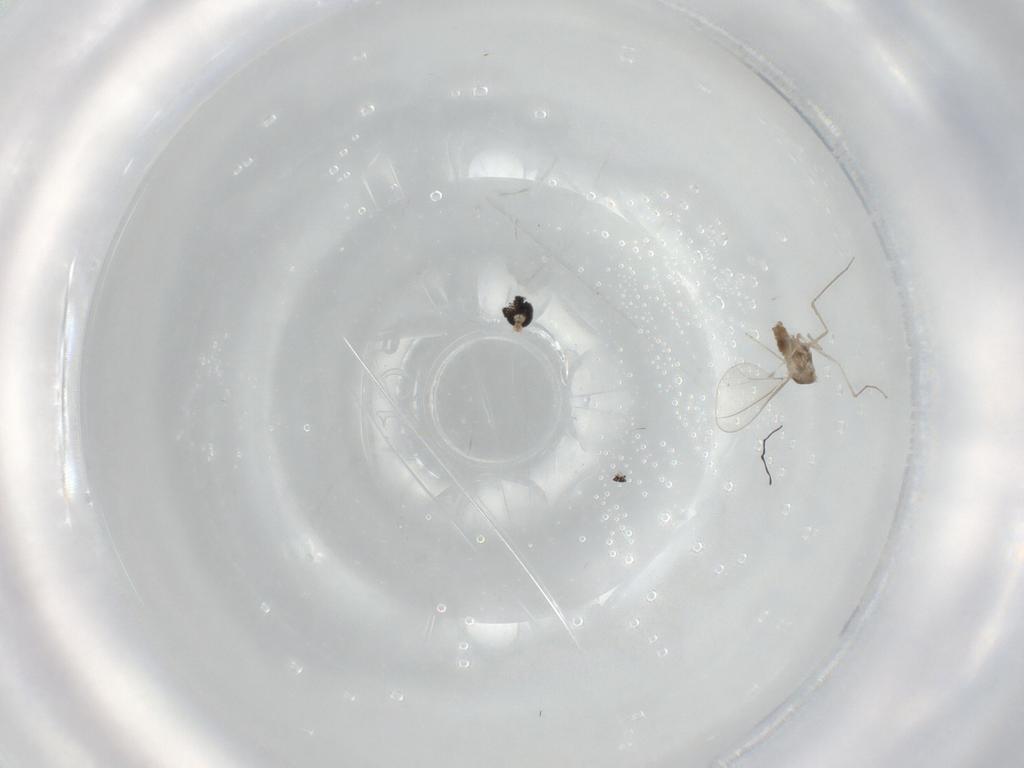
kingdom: Animalia
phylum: Arthropoda
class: Insecta
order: Diptera
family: Cecidomyiidae
